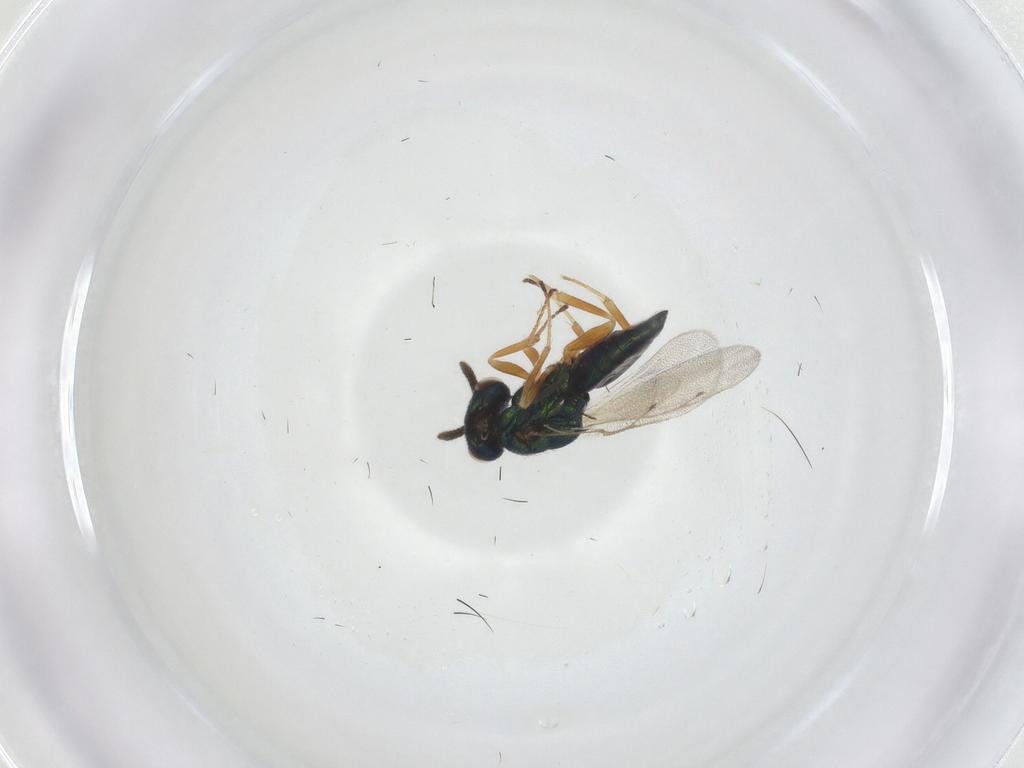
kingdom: Animalia
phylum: Arthropoda
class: Insecta
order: Hymenoptera
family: Pteromalidae
